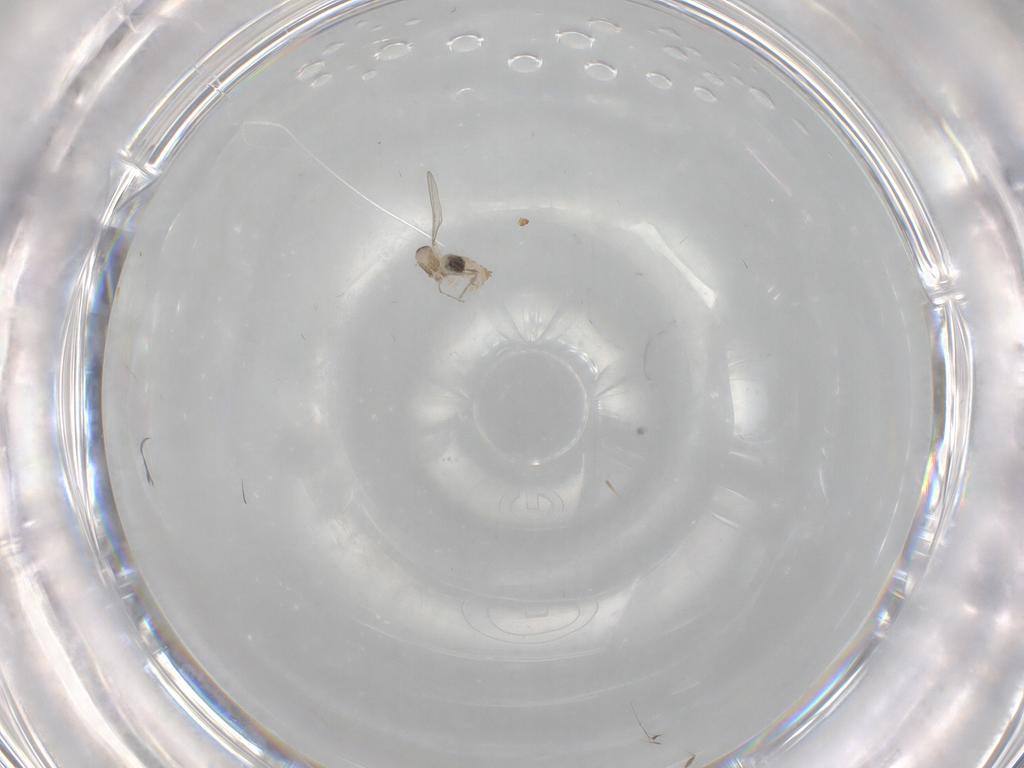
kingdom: Animalia
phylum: Arthropoda
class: Insecta
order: Diptera
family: Cecidomyiidae
